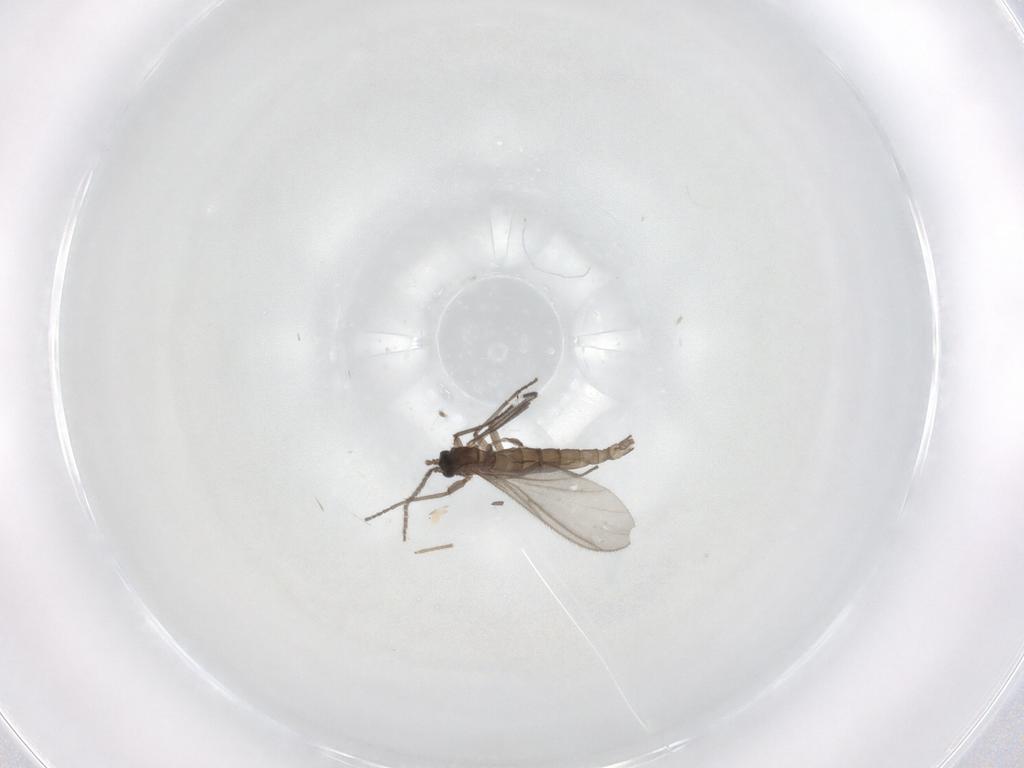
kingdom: Animalia
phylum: Arthropoda
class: Insecta
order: Diptera
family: Dolichopodidae
